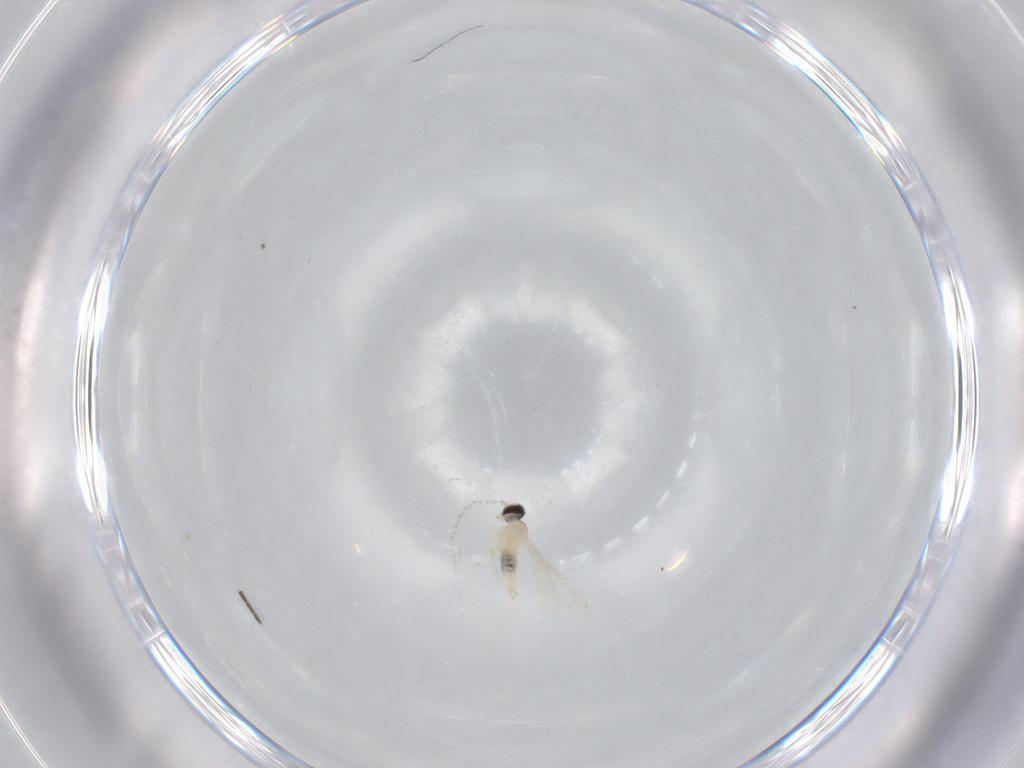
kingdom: Animalia
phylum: Arthropoda
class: Insecta
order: Diptera
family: Cecidomyiidae
